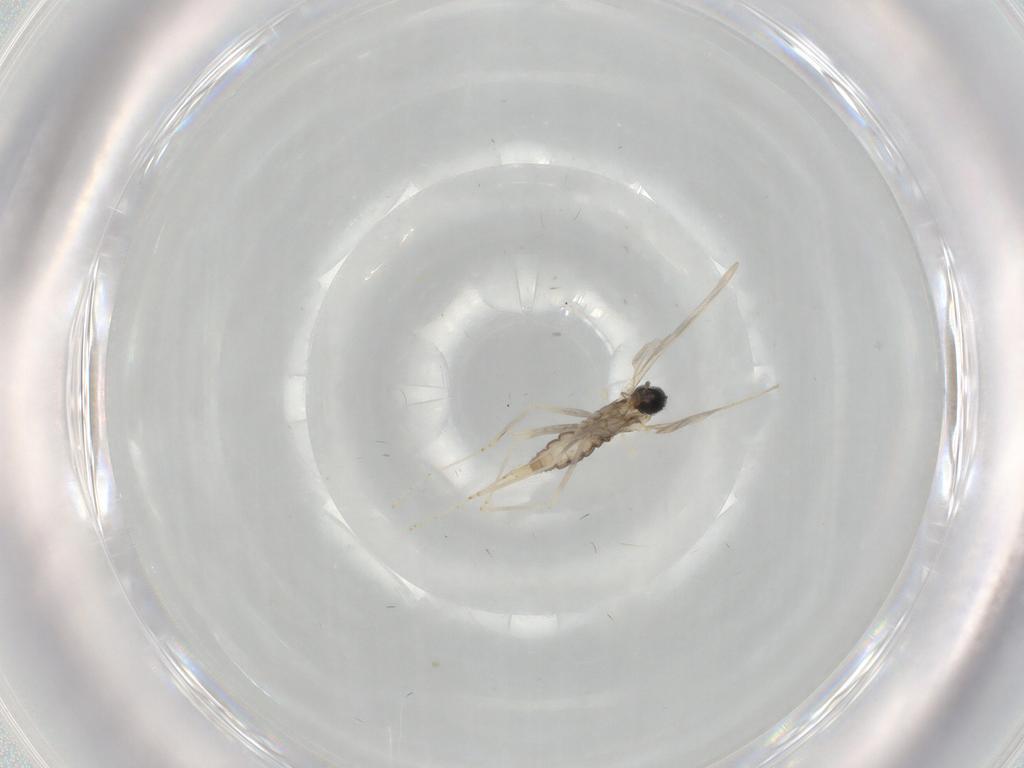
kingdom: Animalia
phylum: Arthropoda
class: Insecta
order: Diptera
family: Cecidomyiidae
